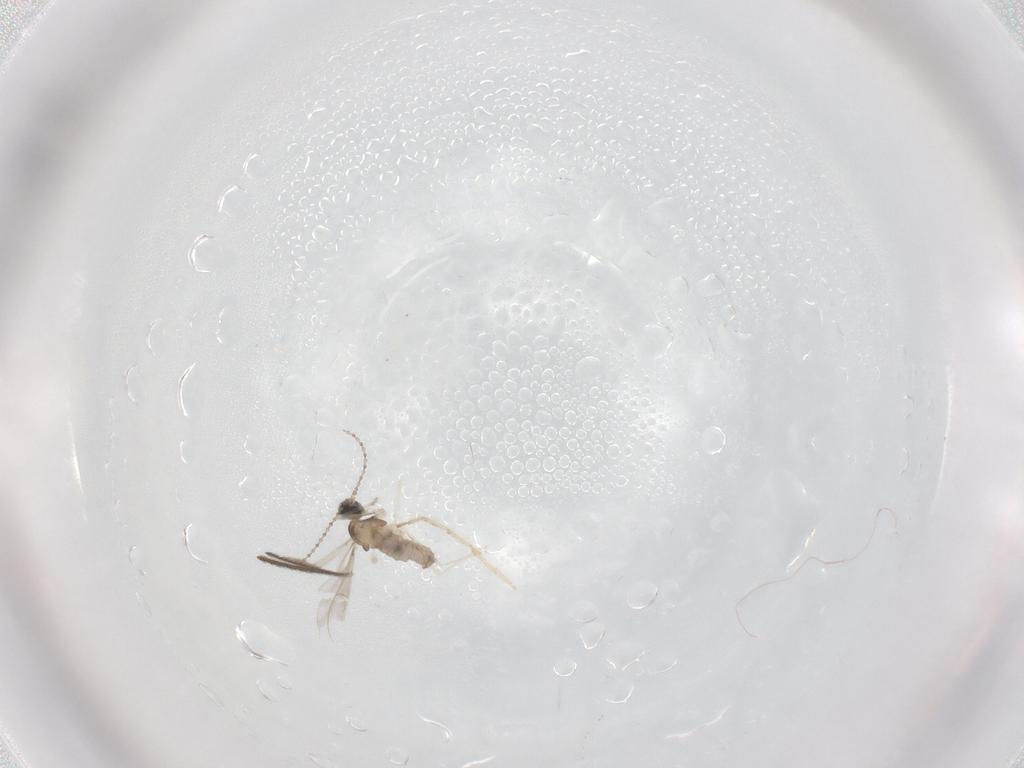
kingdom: Animalia
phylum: Arthropoda
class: Insecta
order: Diptera
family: Cecidomyiidae
